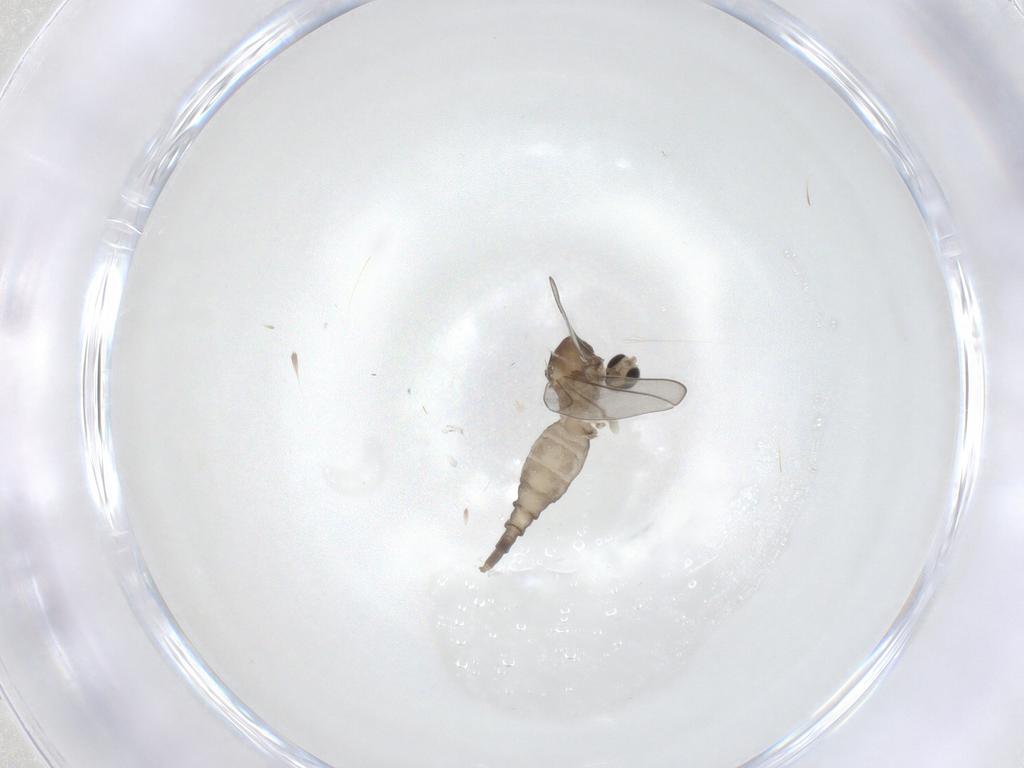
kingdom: Animalia
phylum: Arthropoda
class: Insecta
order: Diptera
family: Cecidomyiidae
